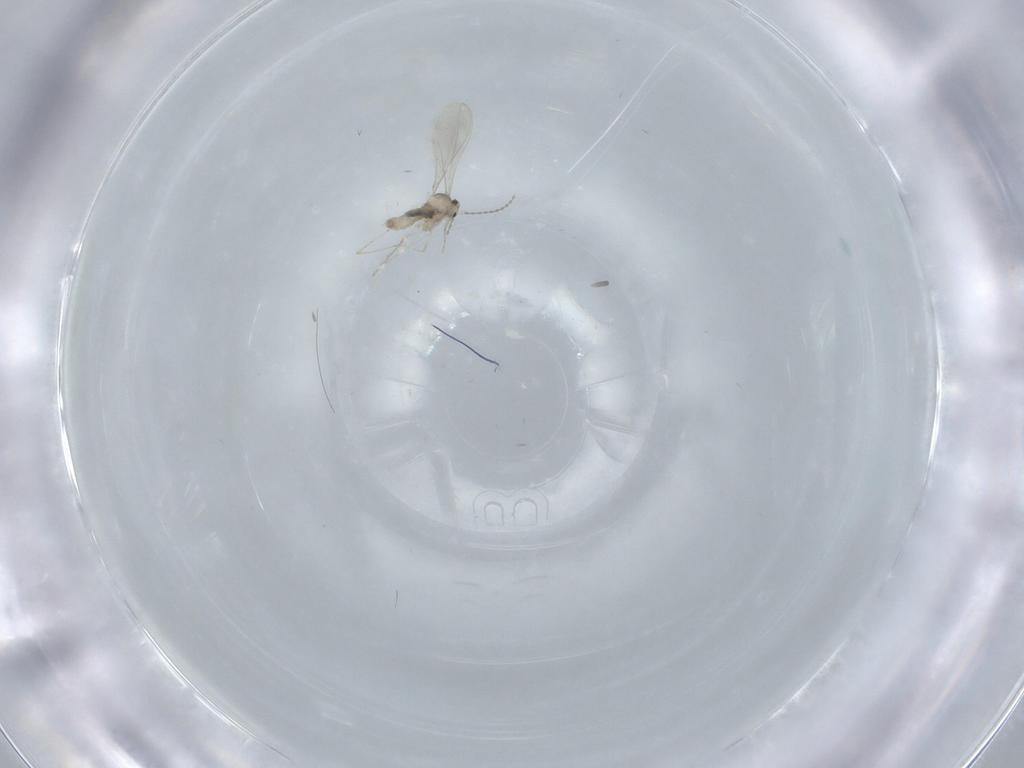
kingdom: Animalia
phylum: Arthropoda
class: Insecta
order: Diptera
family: Cecidomyiidae
